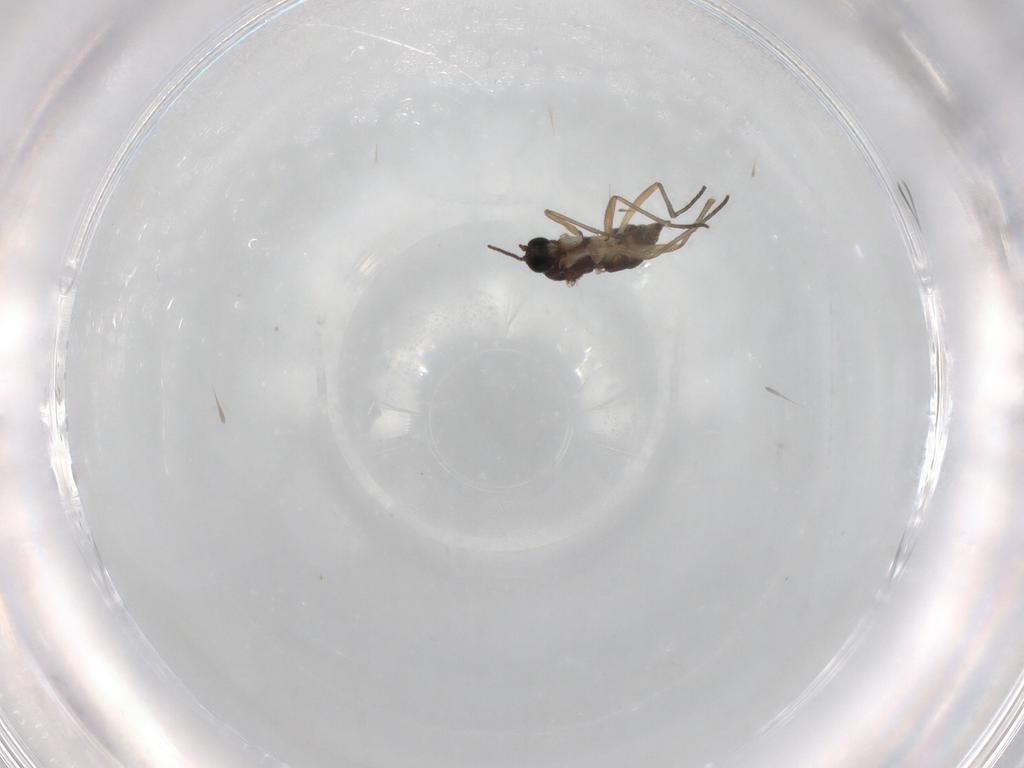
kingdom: Animalia
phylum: Arthropoda
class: Insecta
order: Diptera
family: Sciaridae
